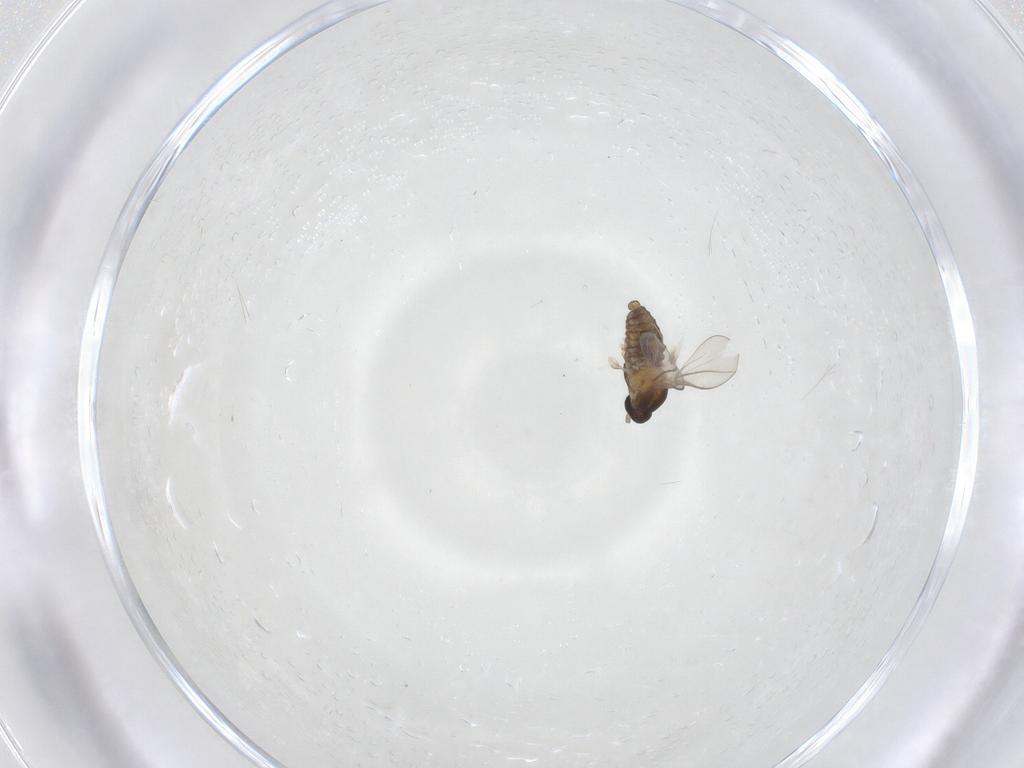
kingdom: Animalia
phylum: Arthropoda
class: Insecta
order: Diptera
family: Cecidomyiidae
